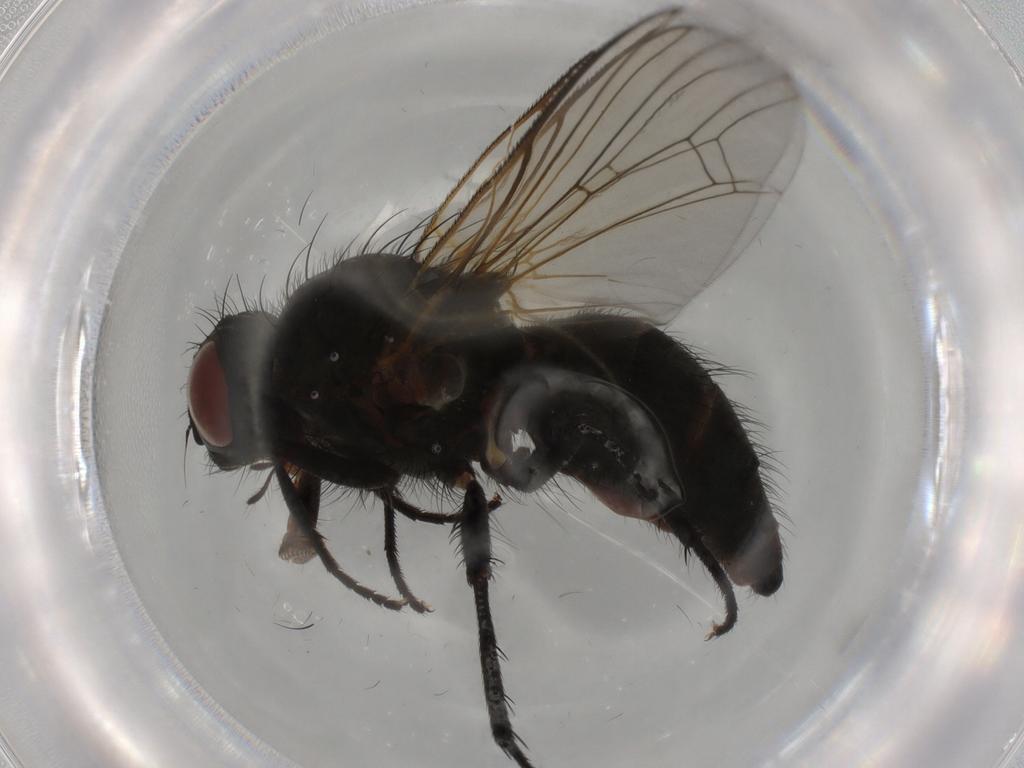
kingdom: Animalia
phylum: Arthropoda
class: Insecta
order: Diptera
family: Anthomyiidae
